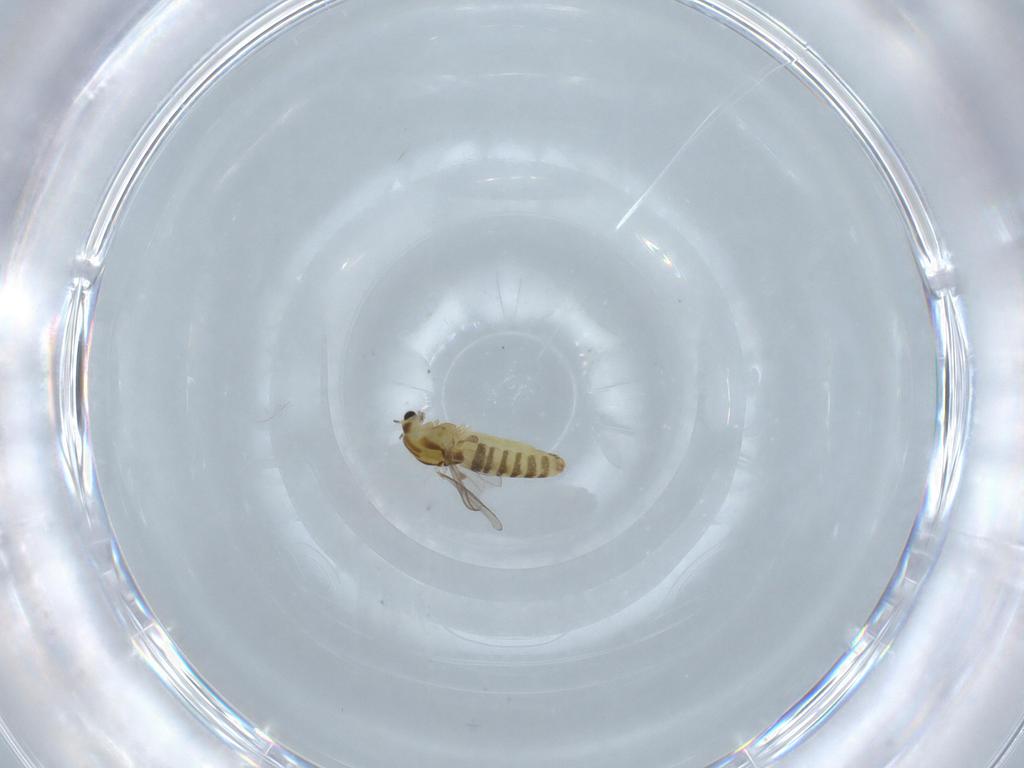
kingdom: Animalia
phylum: Arthropoda
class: Insecta
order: Diptera
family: Chironomidae
